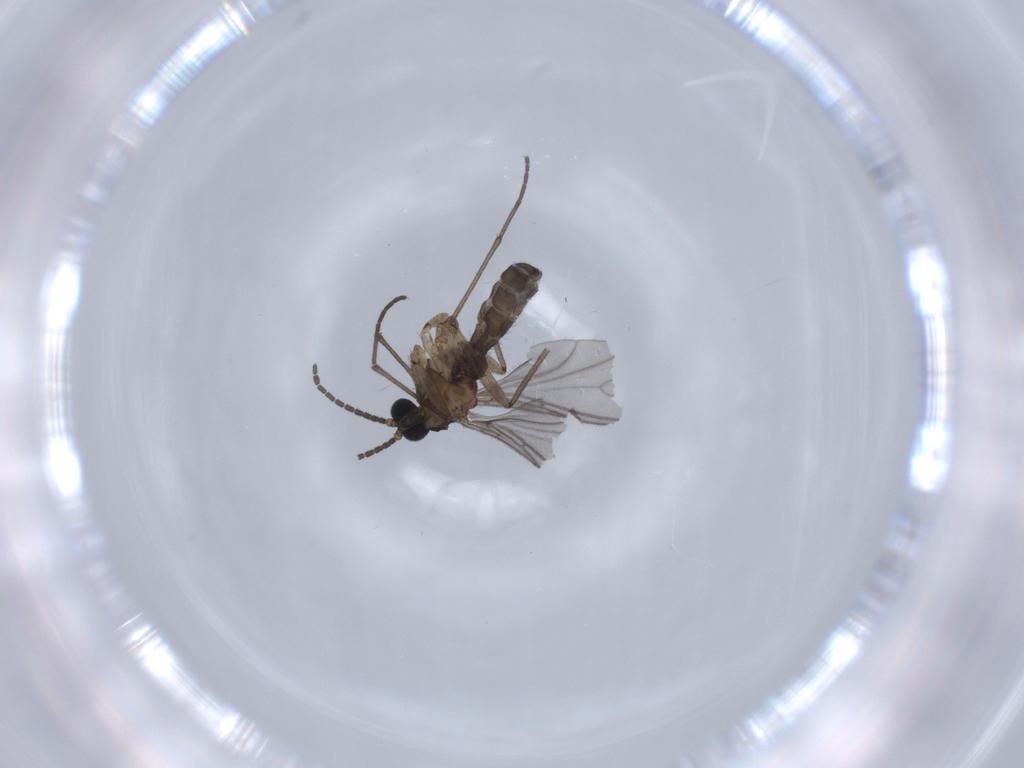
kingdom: Animalia
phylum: Arthropoda
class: Insecta
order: Diptera
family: Sciaridae
